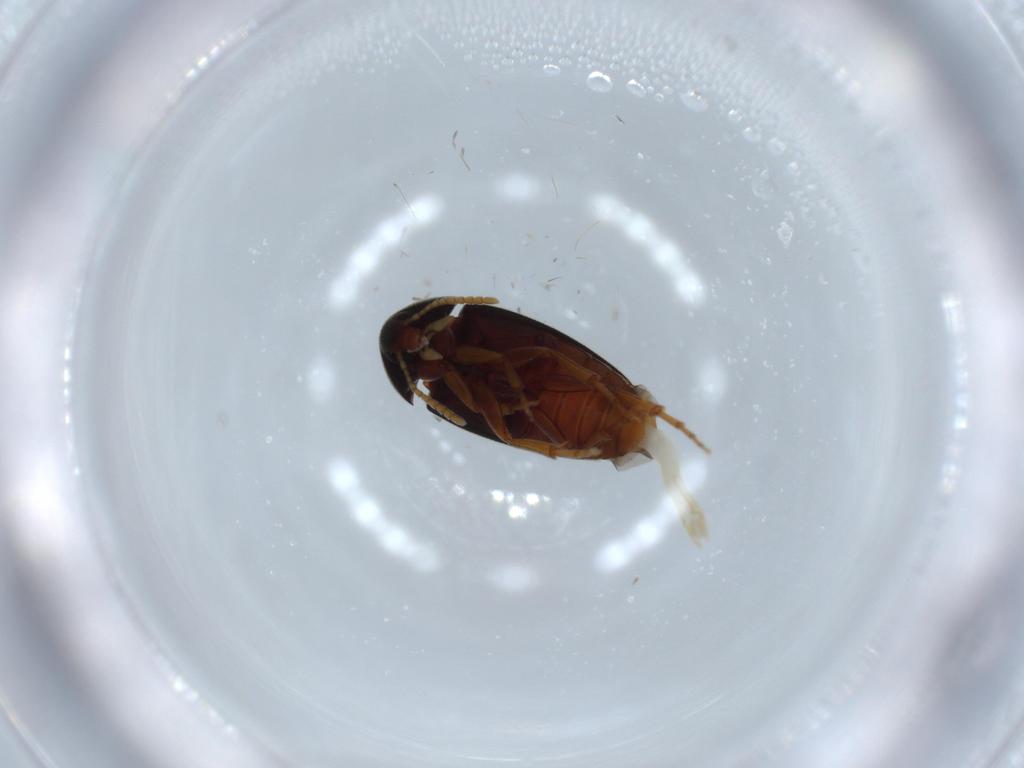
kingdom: Animalia
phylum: Arthropoda
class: Insecta
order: Coleoptera
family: Scraptiidae
